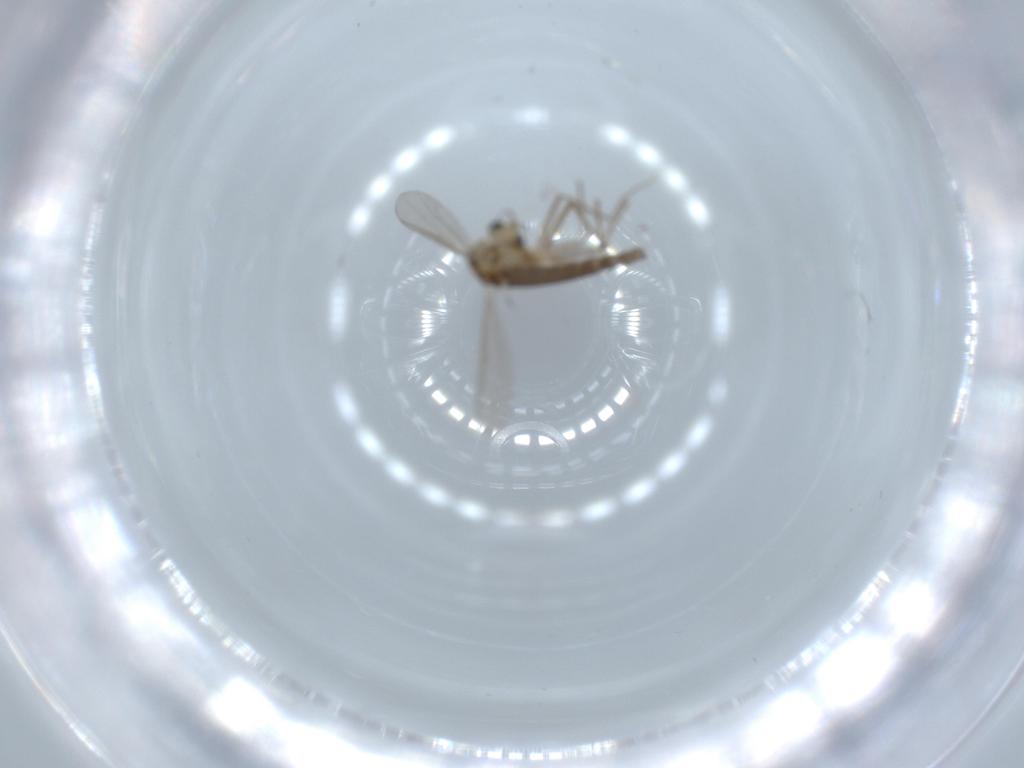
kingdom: Animalia
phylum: Arthropoda
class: Insecta
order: Diptera
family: Chironomidae
